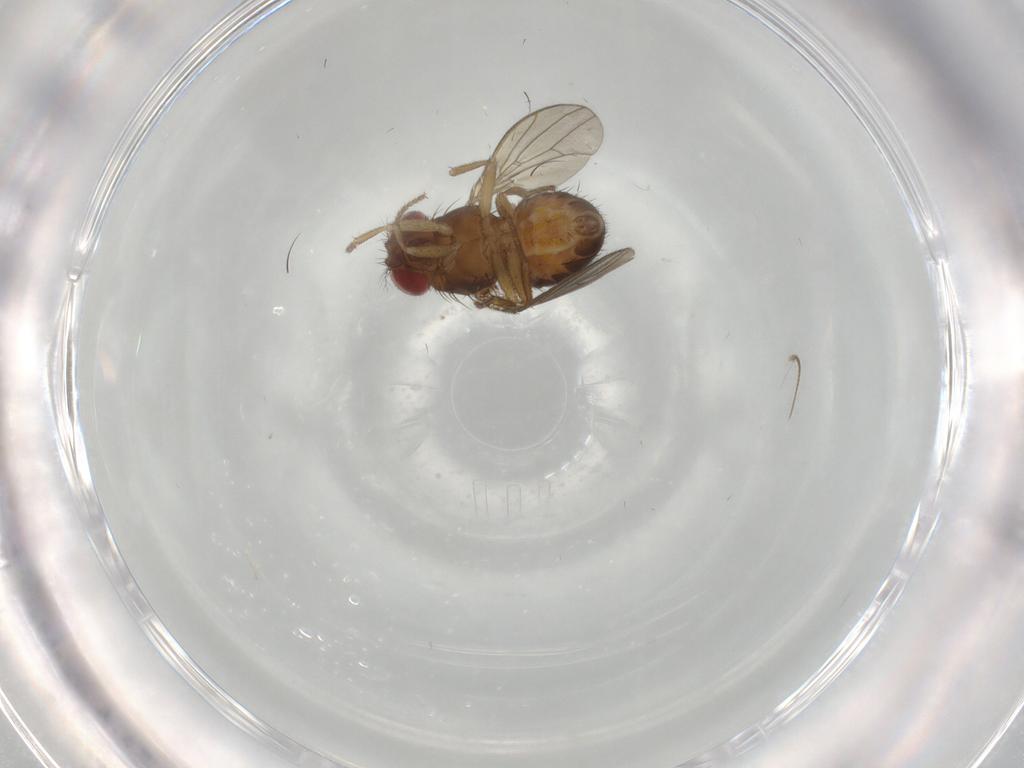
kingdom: Animalia
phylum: Arthropoda
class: Insecta
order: Diptera
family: Drosophilidae
